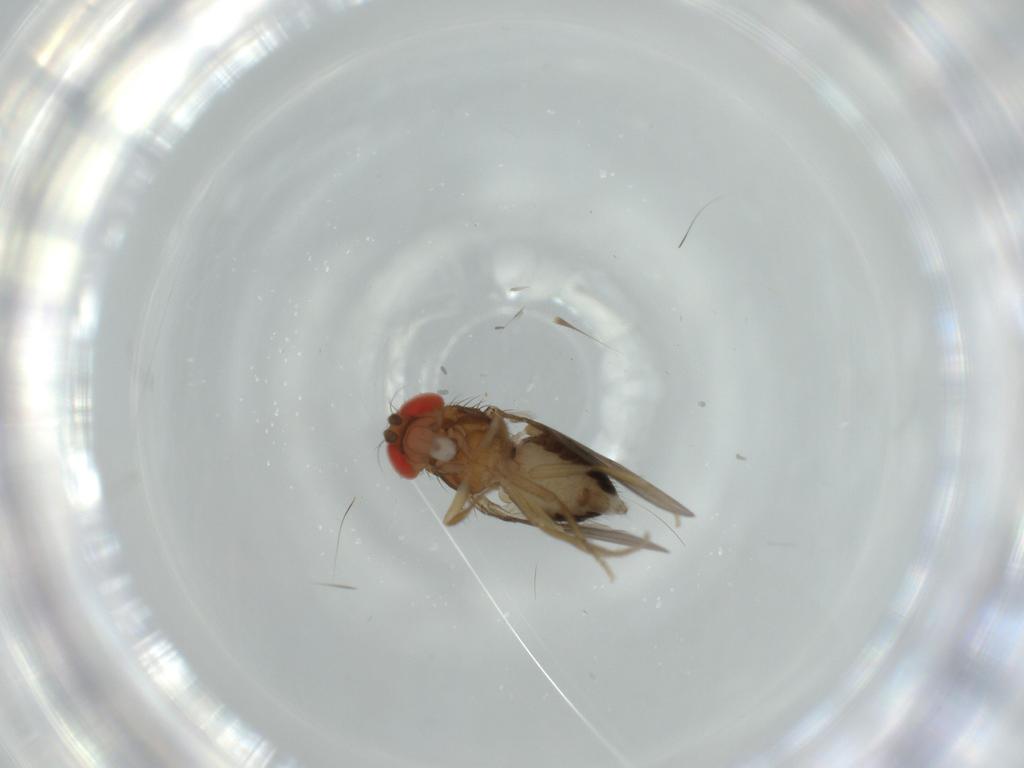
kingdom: Animalia
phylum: Arthropoda
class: Insecta
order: Diptera
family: Drosophilidae
